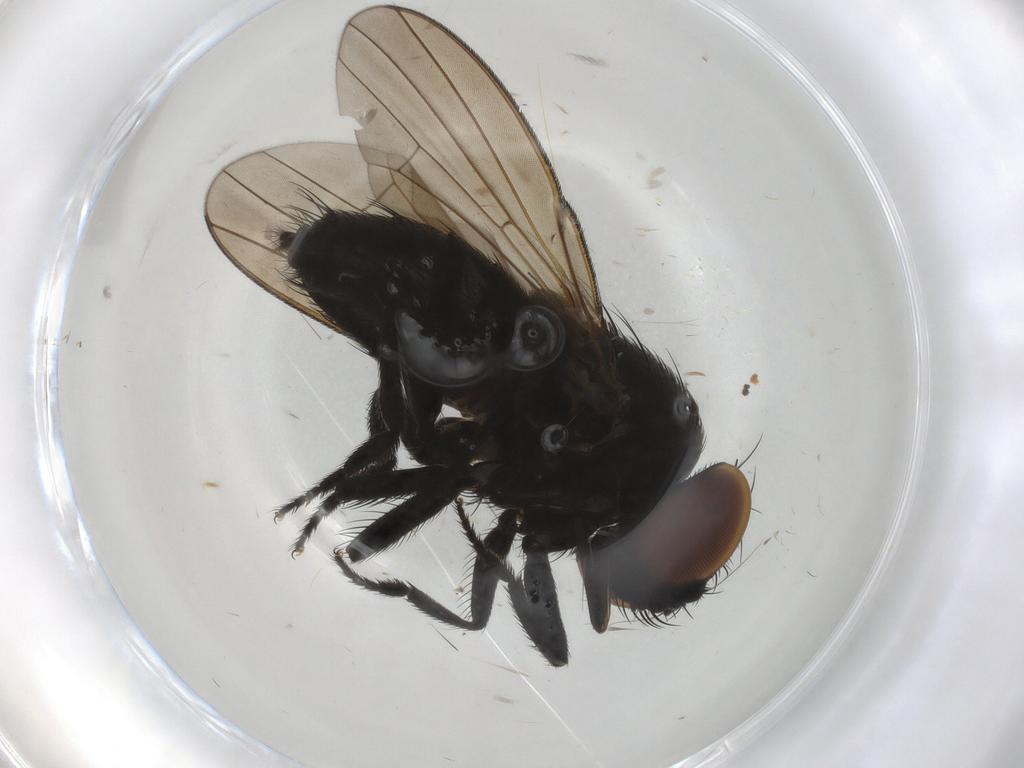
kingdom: Animalia
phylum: Arthropoda
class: Insecta
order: Diptera
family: Milichiidae
